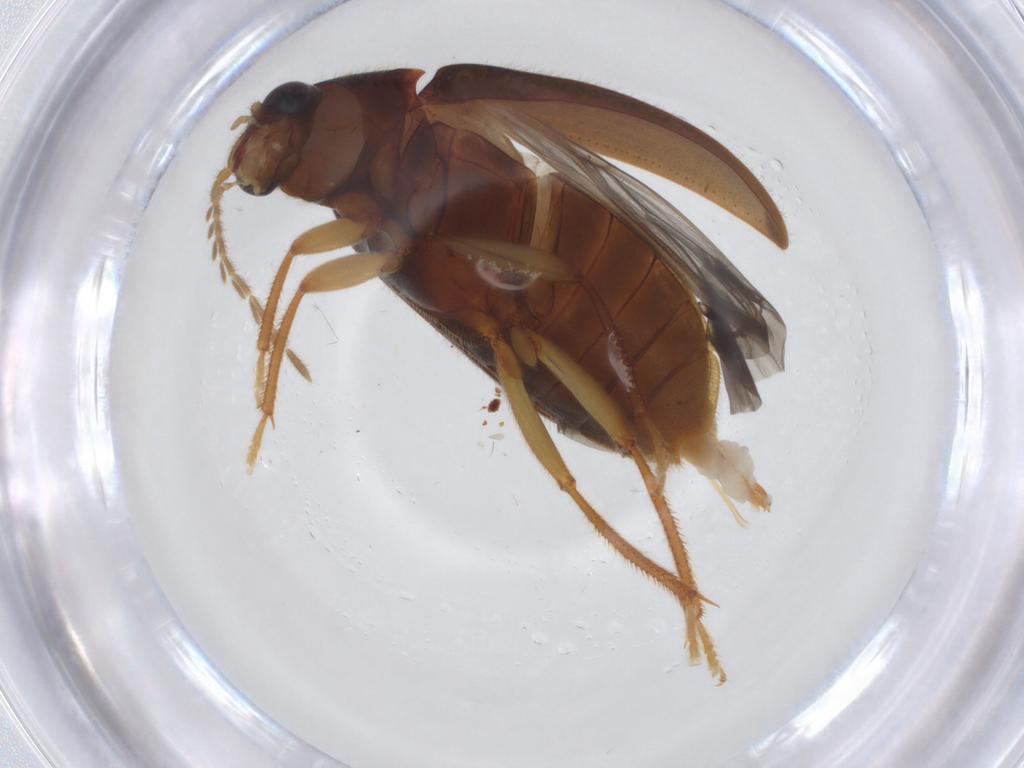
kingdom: Animalia
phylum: Arthropoda
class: Insecta
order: Coleoptera
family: Ptilodactylidae
